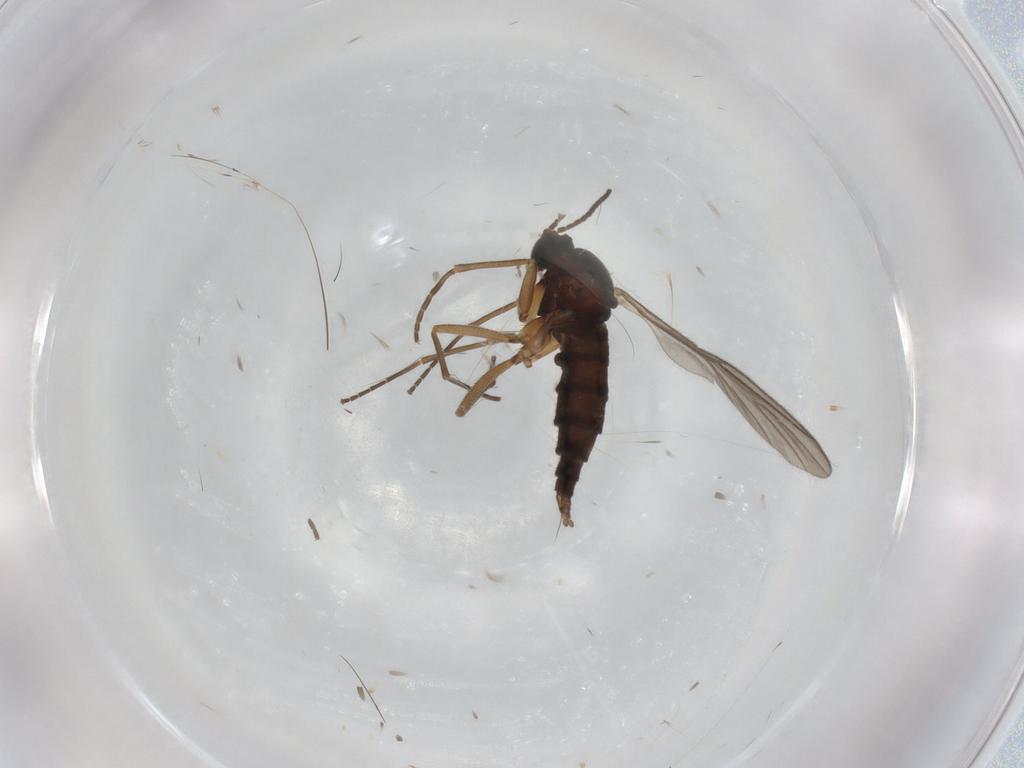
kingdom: Animalia
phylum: Arthropoda
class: Insecta
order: Diptera
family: Sciaridae
